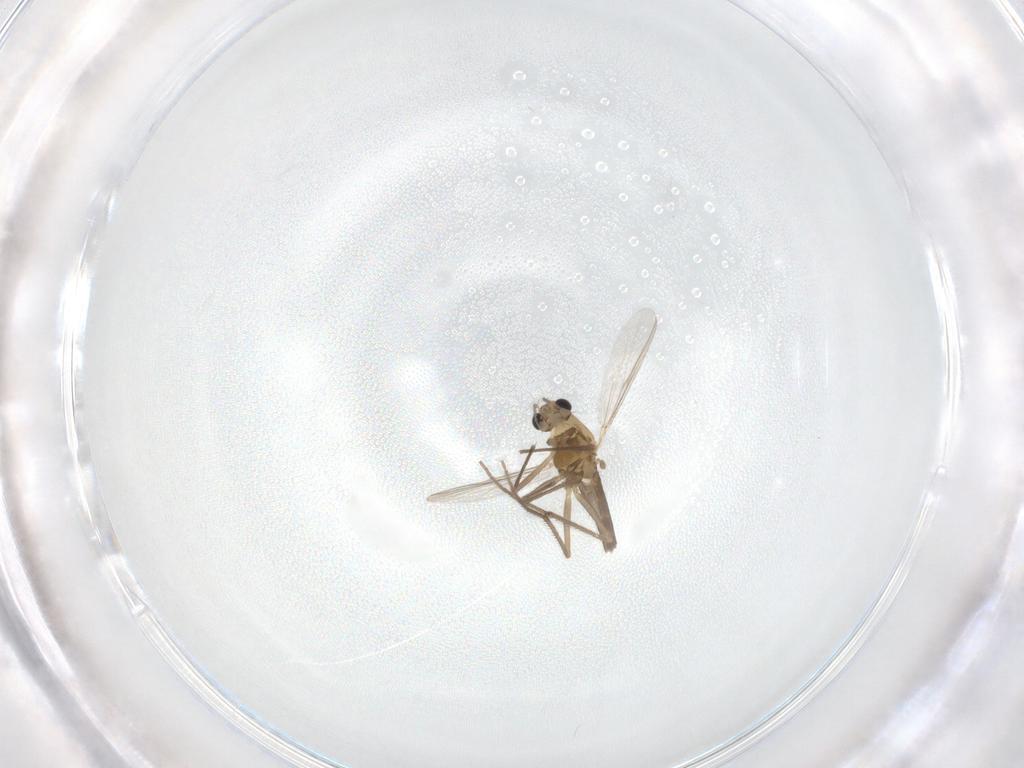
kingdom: Animalia
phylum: Arthropoda
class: Insecta
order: Diptera
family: Chironomidae
